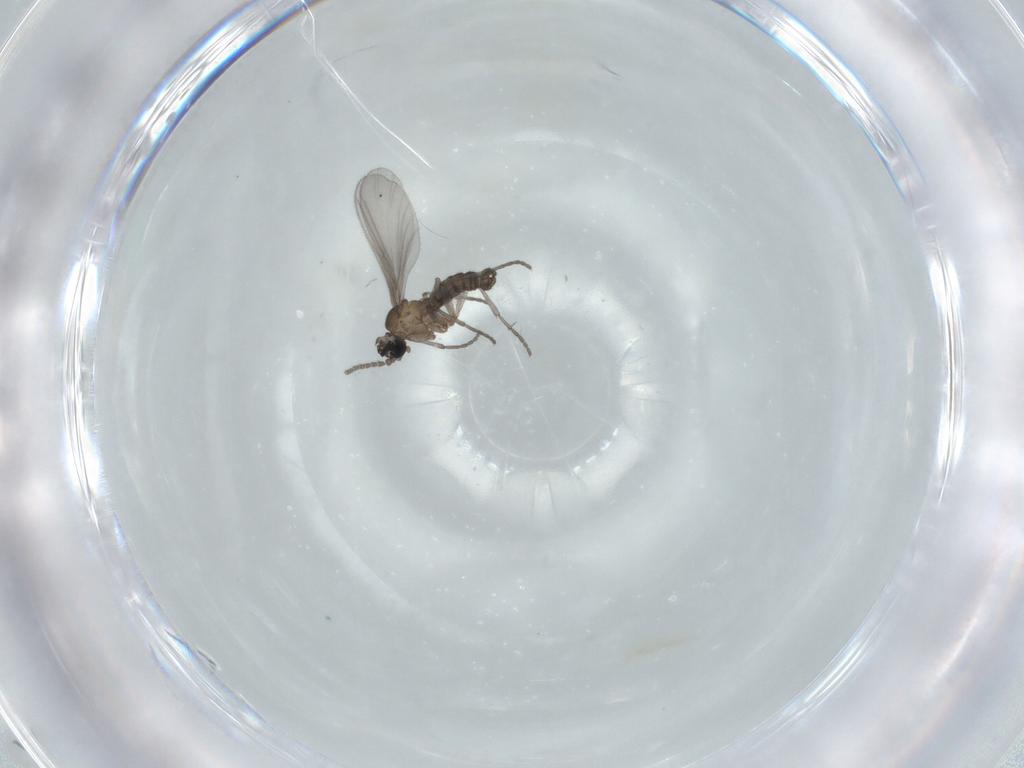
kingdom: Animalia
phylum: Arthropoda
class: Insecta
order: Diptera
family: Sciaridae
